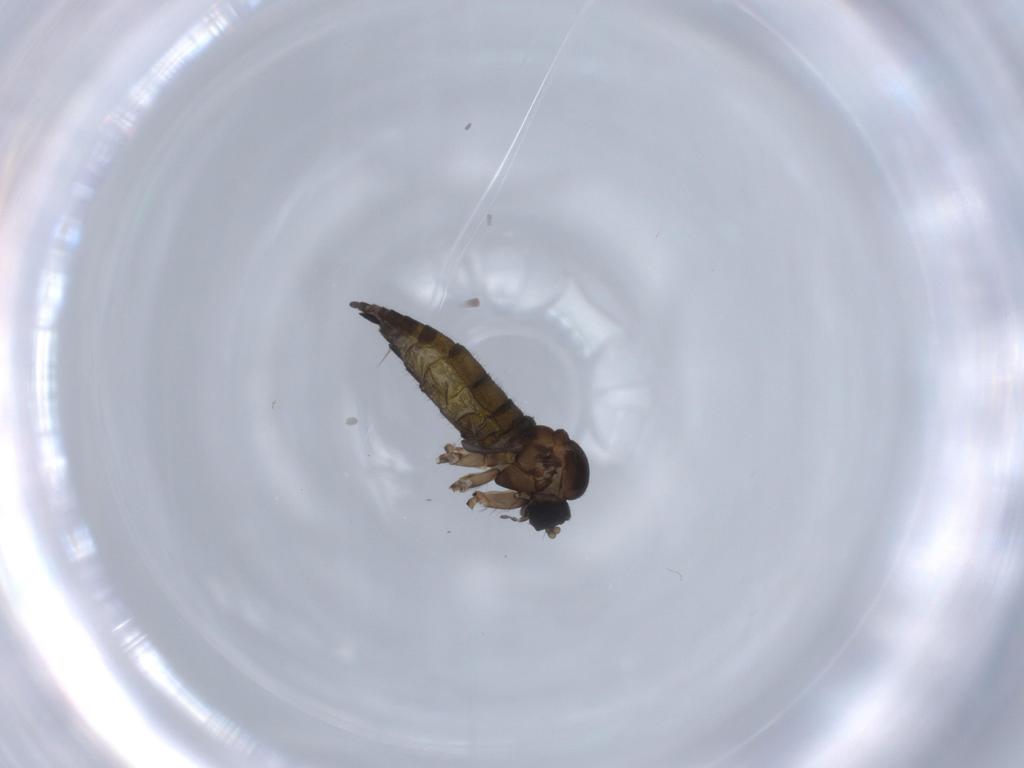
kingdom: Animalia
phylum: Arthropoda
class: Insecta
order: Diptera
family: Sciaridae
